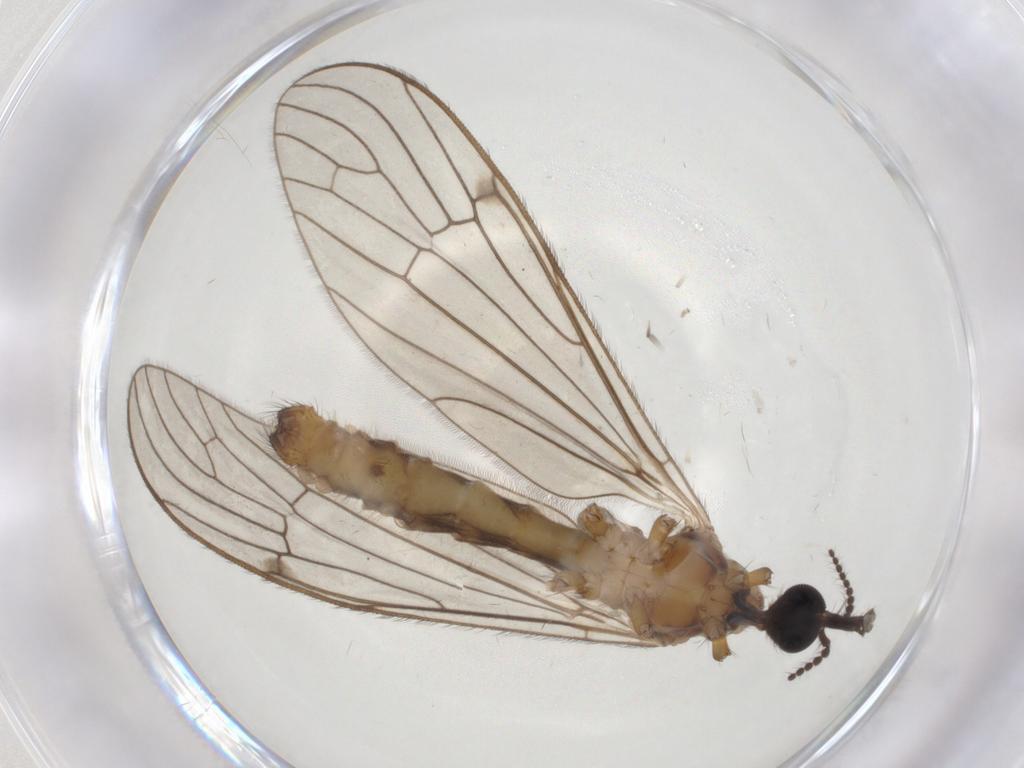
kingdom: Animalia
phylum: Arthropoda
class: Insecta
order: Diptera
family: Limoniidae
